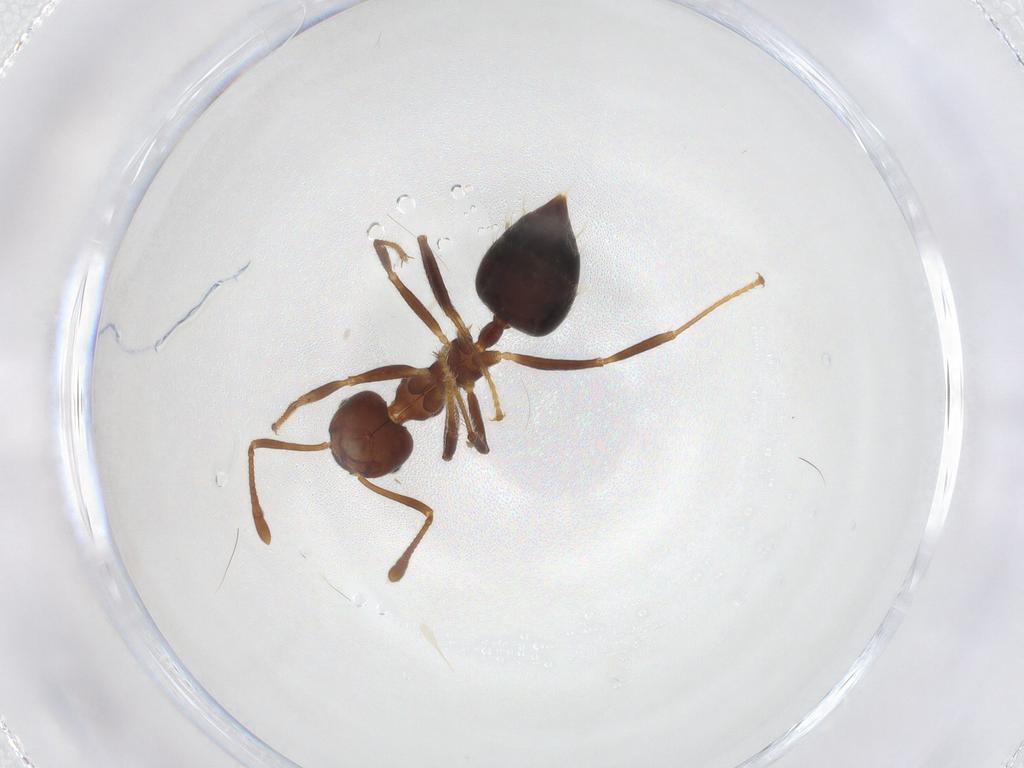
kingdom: Animalia
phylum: Arthropoda
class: Insecta
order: Hymenoptera
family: Formicidae
